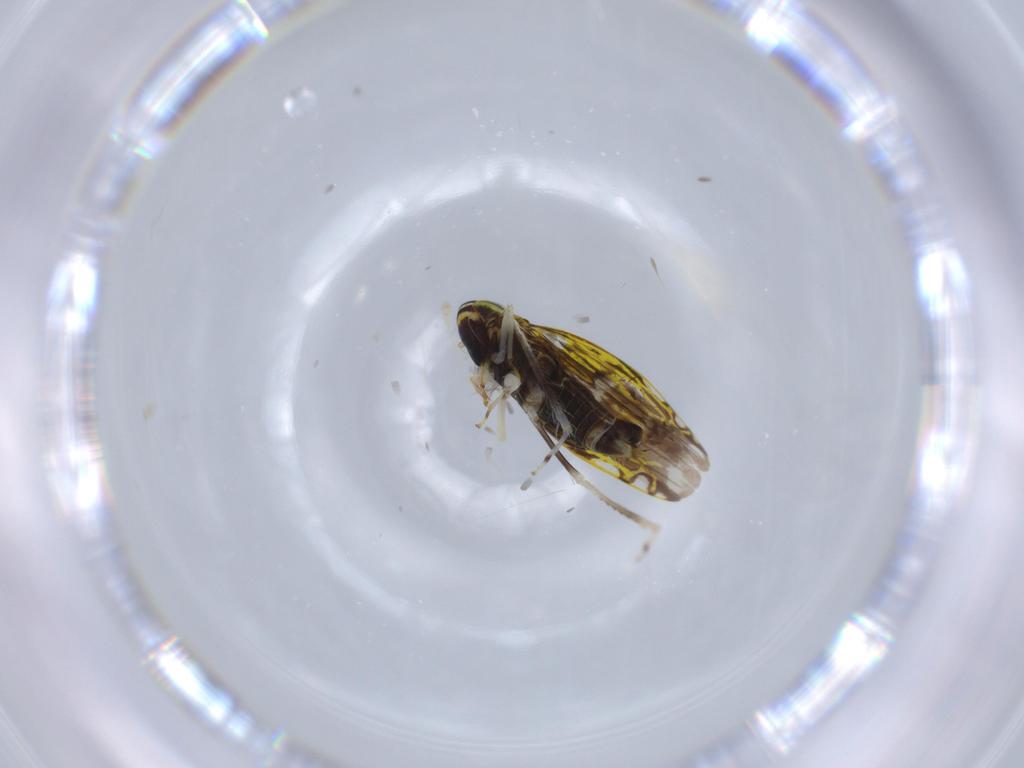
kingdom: Animalia
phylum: Arthropoda
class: Insecta
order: Hemiptera
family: Cicadellidae
